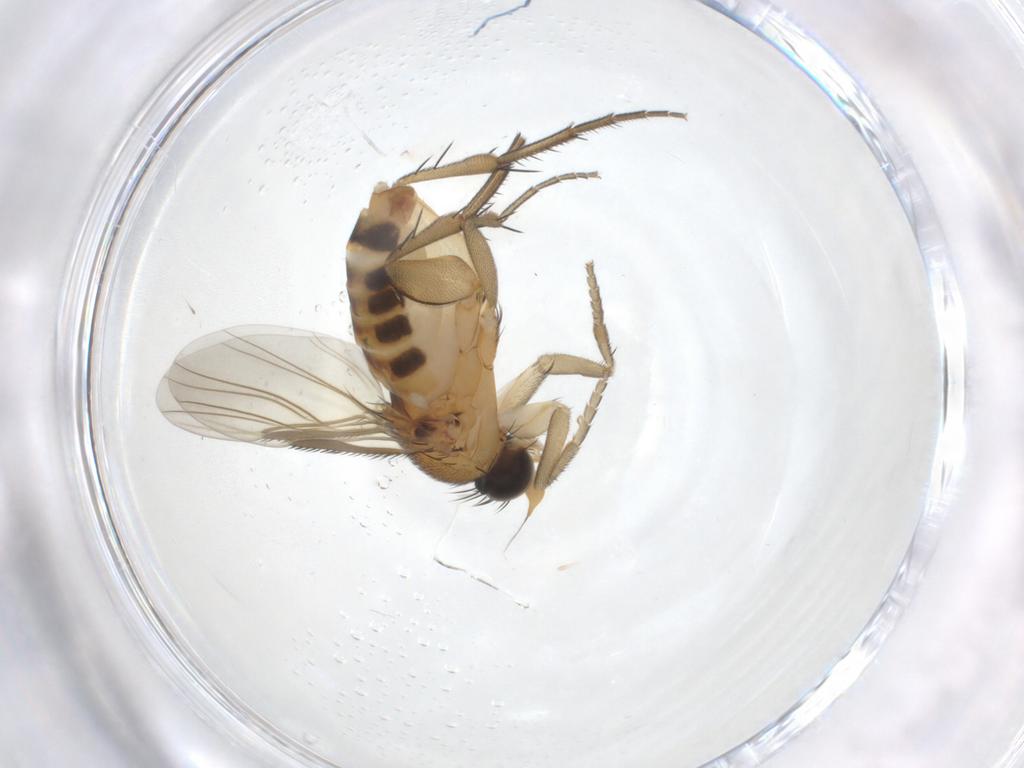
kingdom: Animalia
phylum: Arthropoda
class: Insecta
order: Diptera
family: Phoridae
